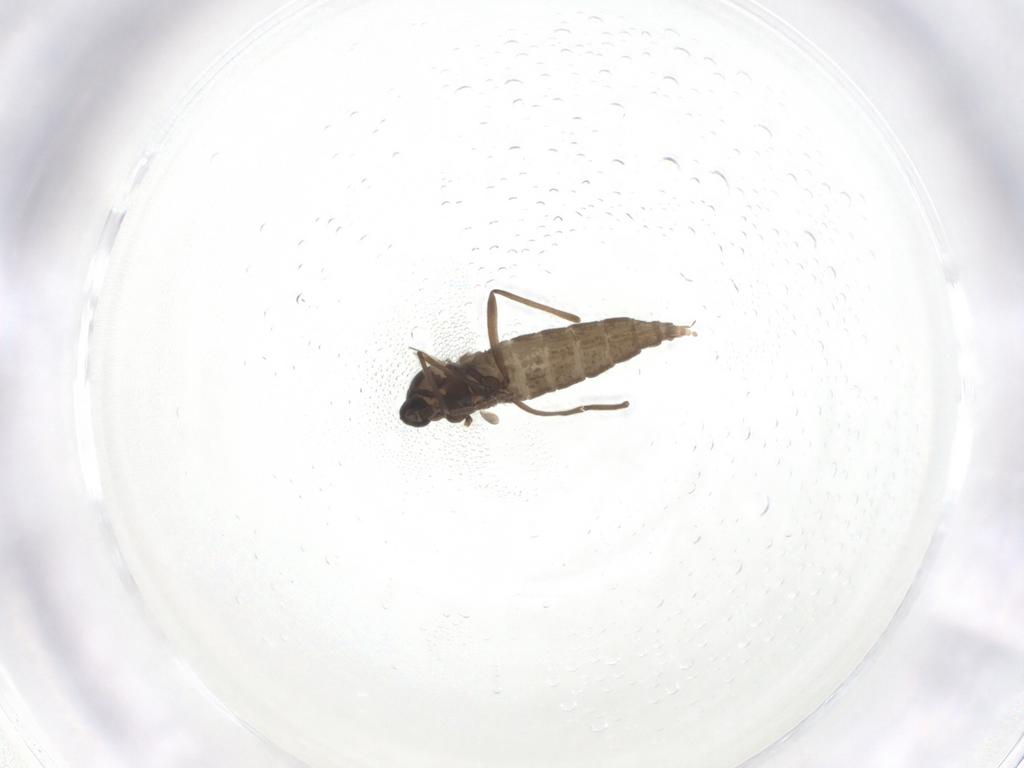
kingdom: Animalia
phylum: Arthropoda
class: Insecta
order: Diptera
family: Cecidomyiidae
